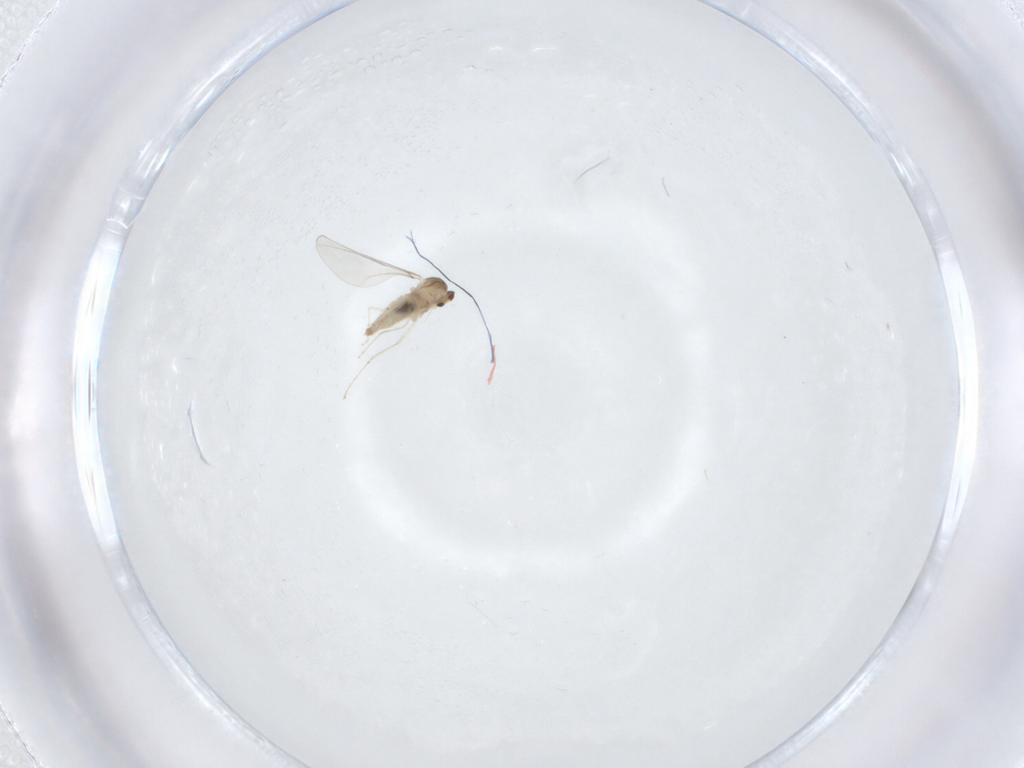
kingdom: Animalia
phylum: Arthropoda
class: Insecta
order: Diptera
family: Cecidomyiidae
